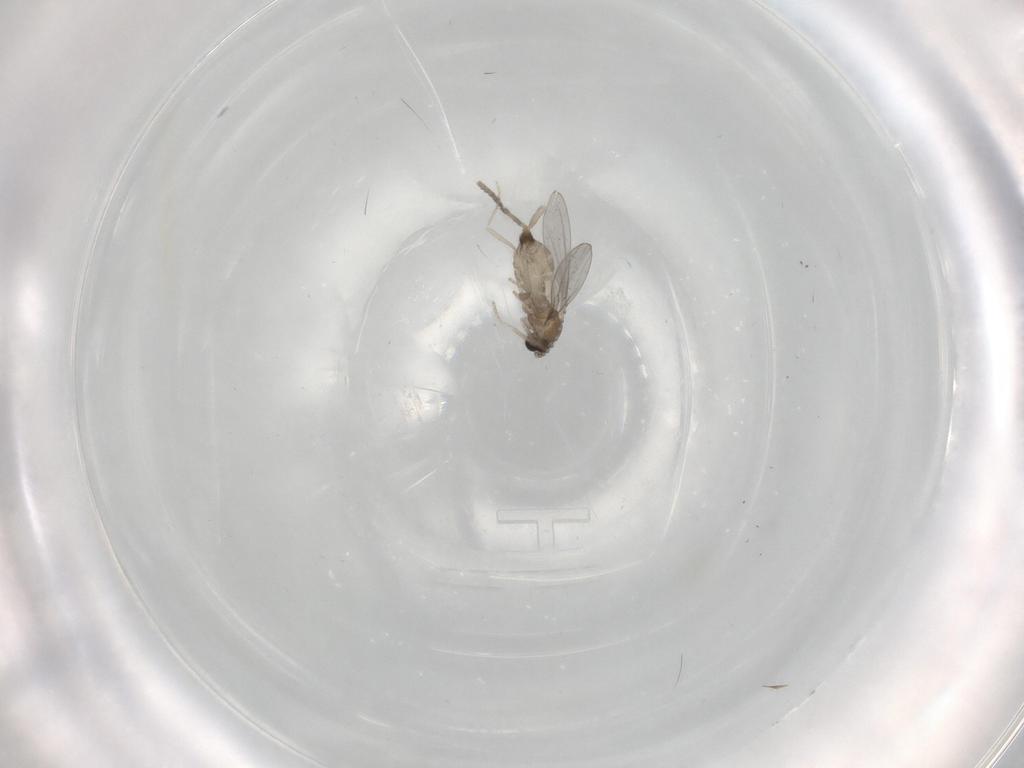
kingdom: Animalia
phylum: Arthropoda
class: Insecta
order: Diptera
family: Cecidomyiidae
